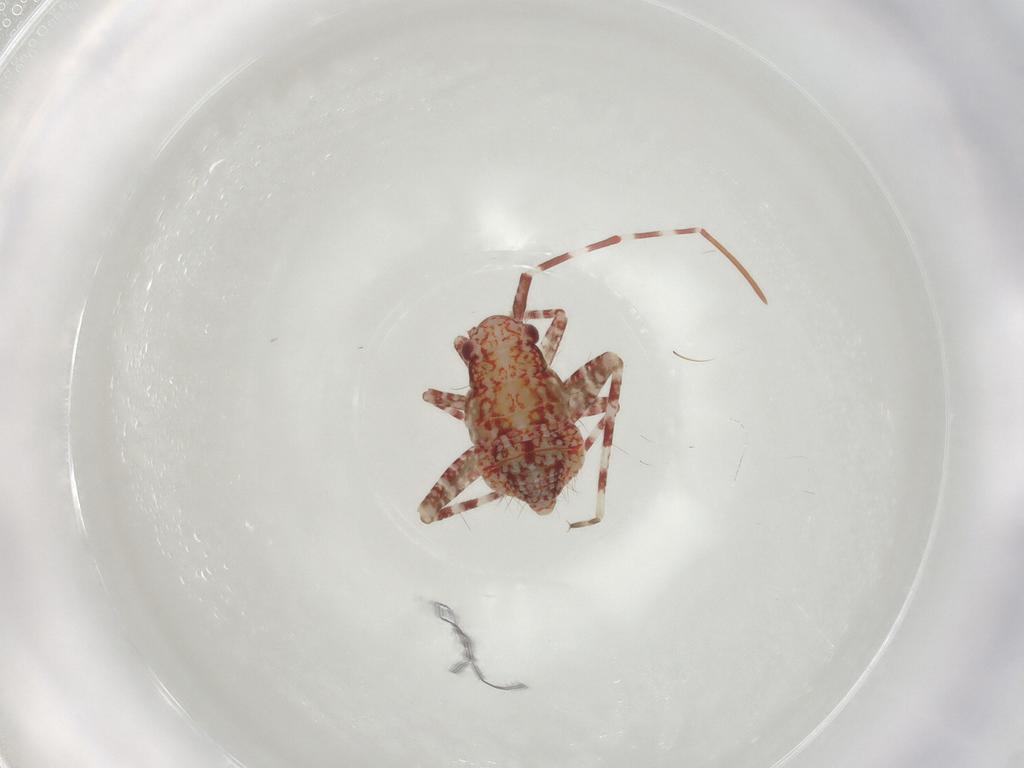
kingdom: Animalia
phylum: Arthropoda
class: Insecta
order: Hemiptera
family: Miridae
